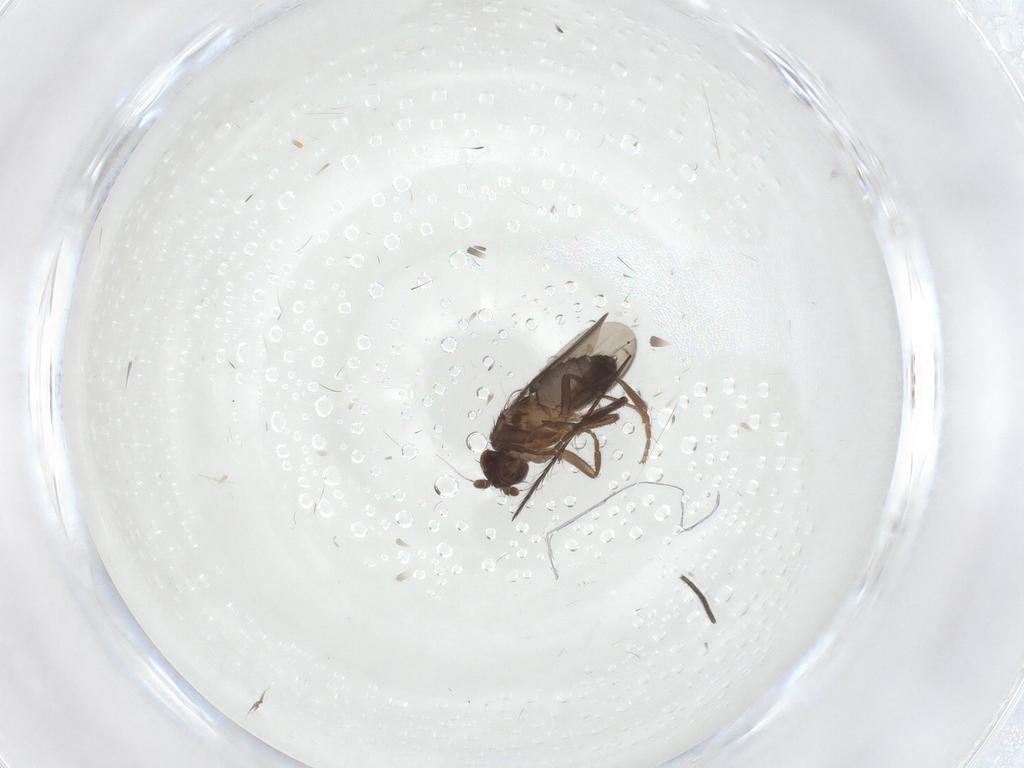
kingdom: Animalia
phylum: Arthropoda
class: Insecta
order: Diptera
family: Sciaridae
